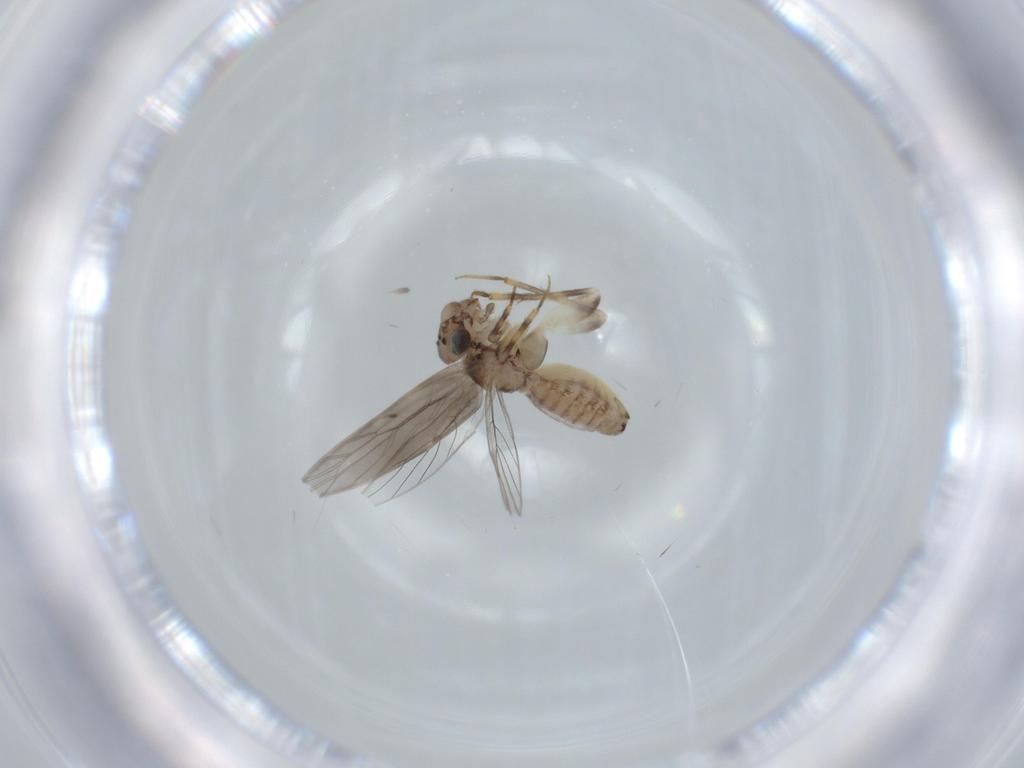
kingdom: Animalia
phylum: Arthropoda
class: Insecta
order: Psocodea
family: Lepidopsocidae
